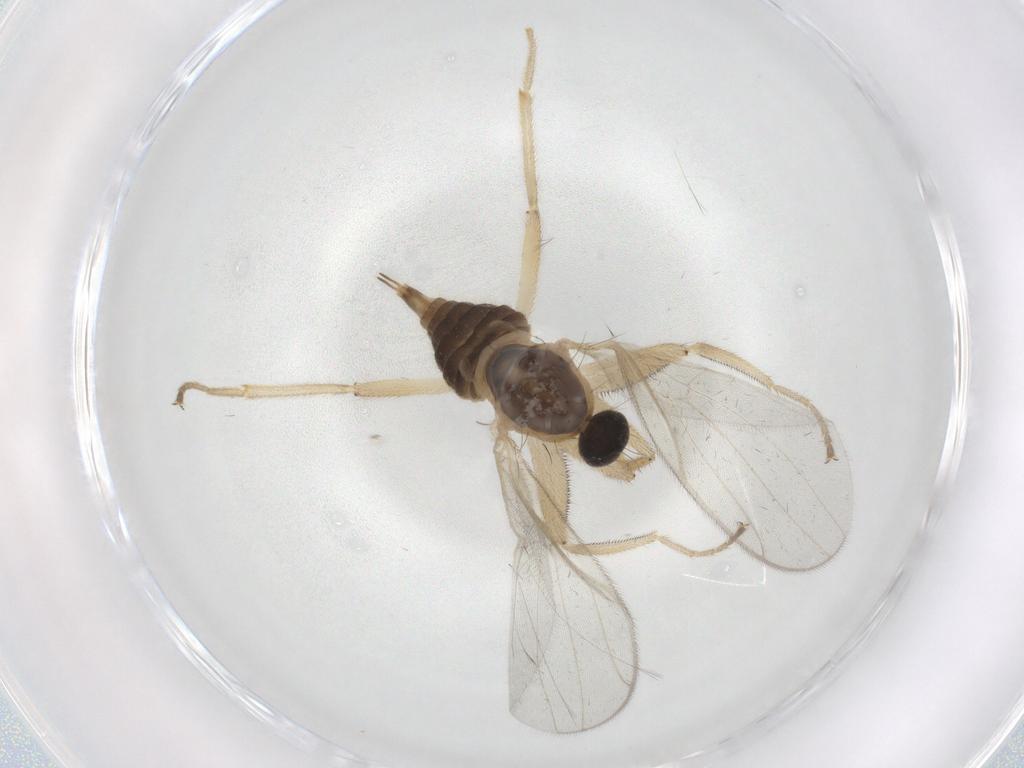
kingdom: Animalia
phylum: Arthropoda
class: Insecta
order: Diptera
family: Hybotidae
